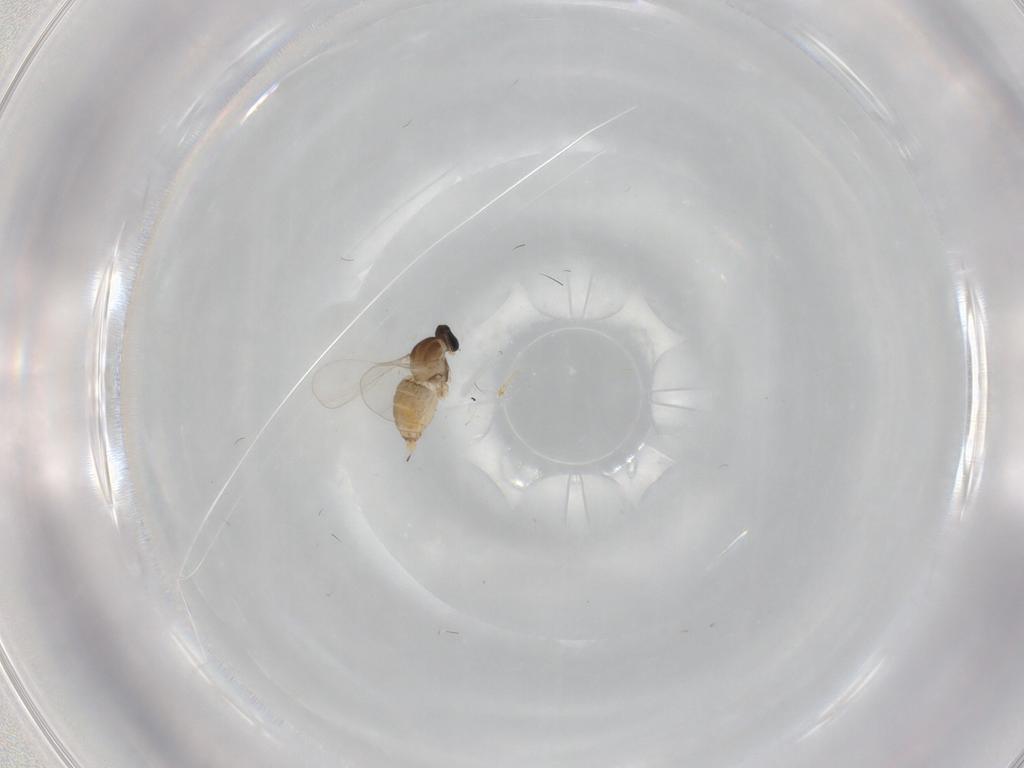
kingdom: Animalia
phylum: Arthropoda
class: Insecta
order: Diptera
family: Cecidomyiidae
